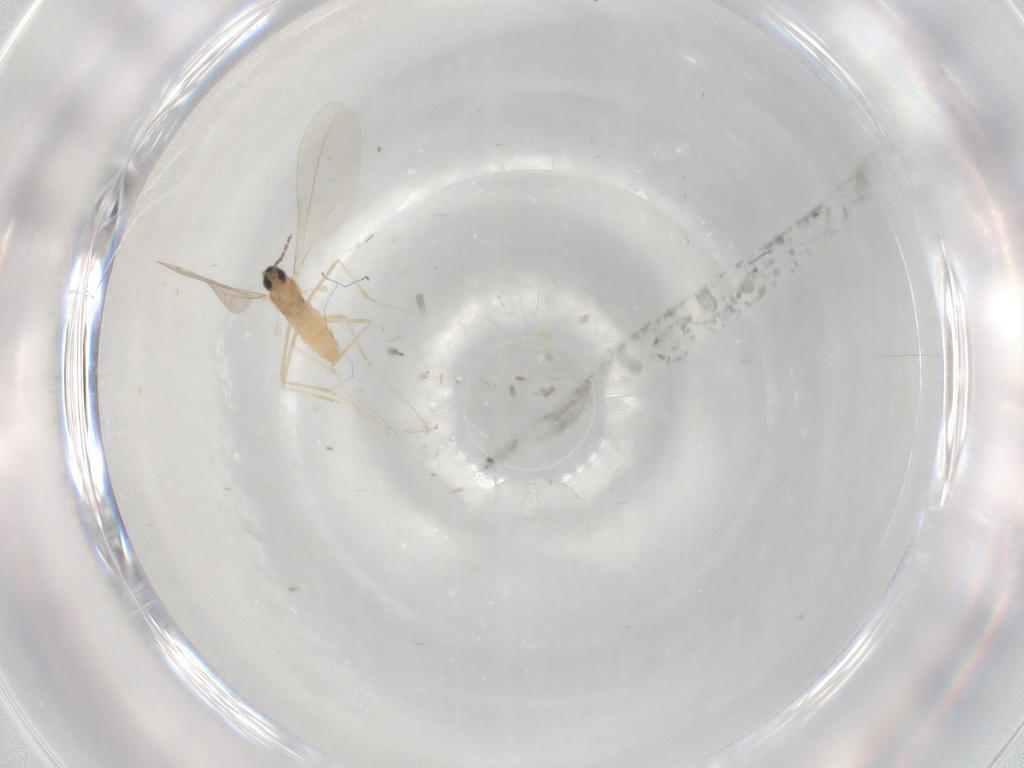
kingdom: Animalia
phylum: Arthropoda
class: Insecta
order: Diptera
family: Cecidomyiidae
